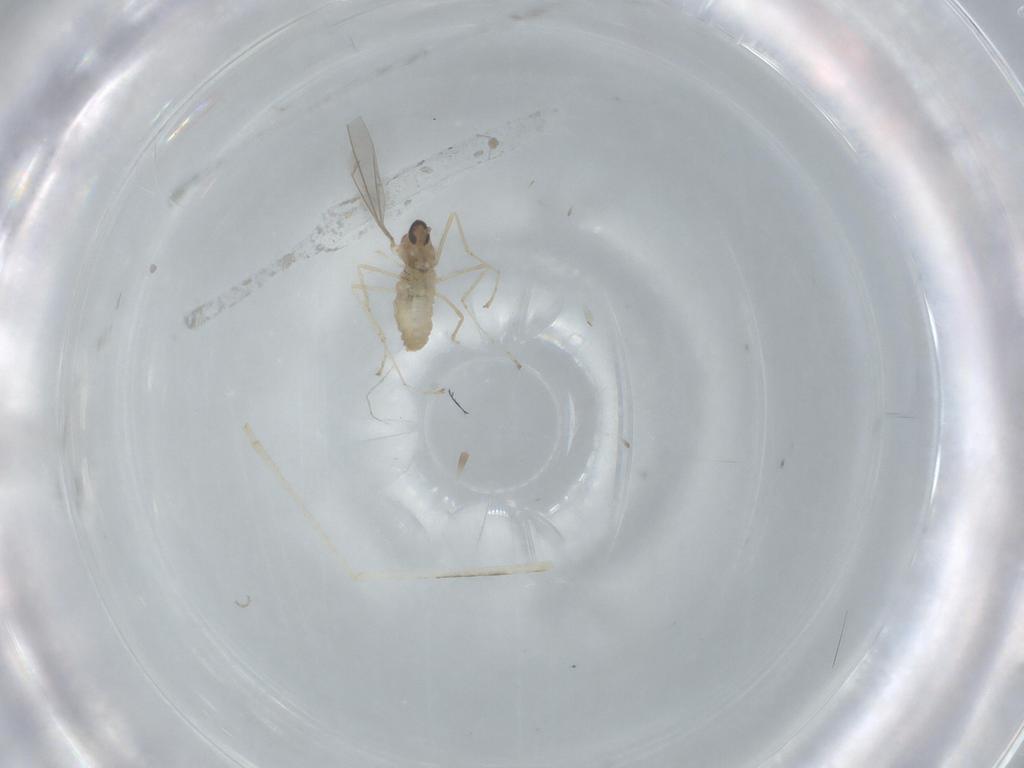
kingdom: Animalia
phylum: Arthropoda
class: Insecta
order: Diptera
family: Cecidomyiidae
